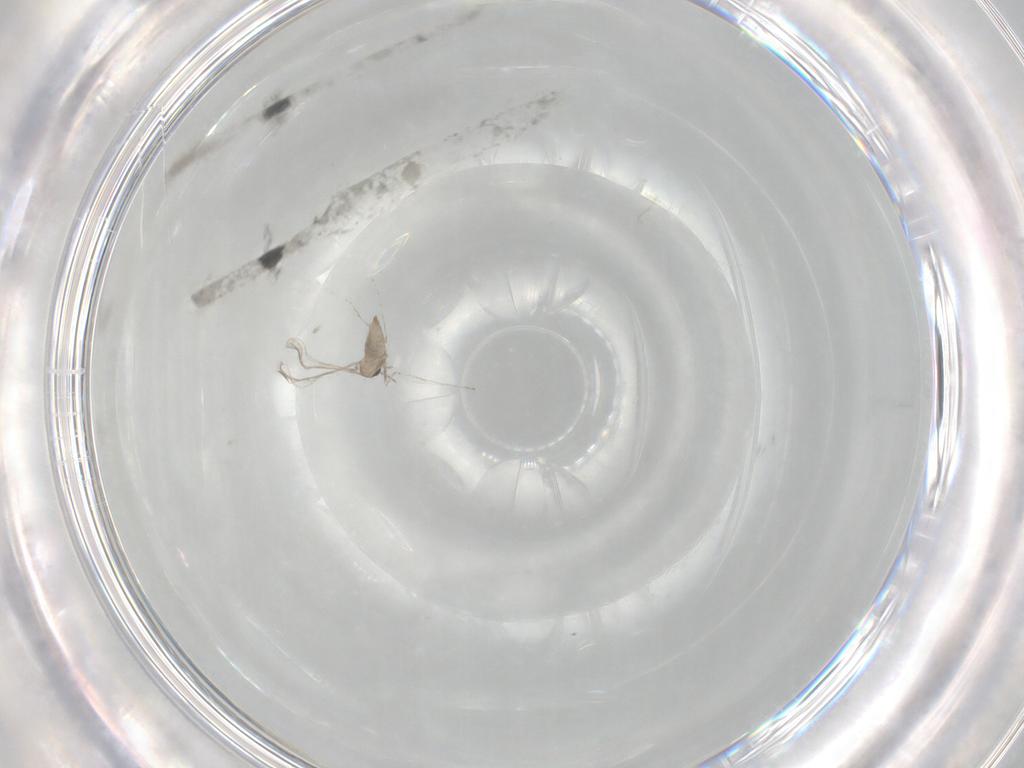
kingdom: Animalia
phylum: Arthropoda
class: Insecta
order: Diptera
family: Cecidomyiidae
